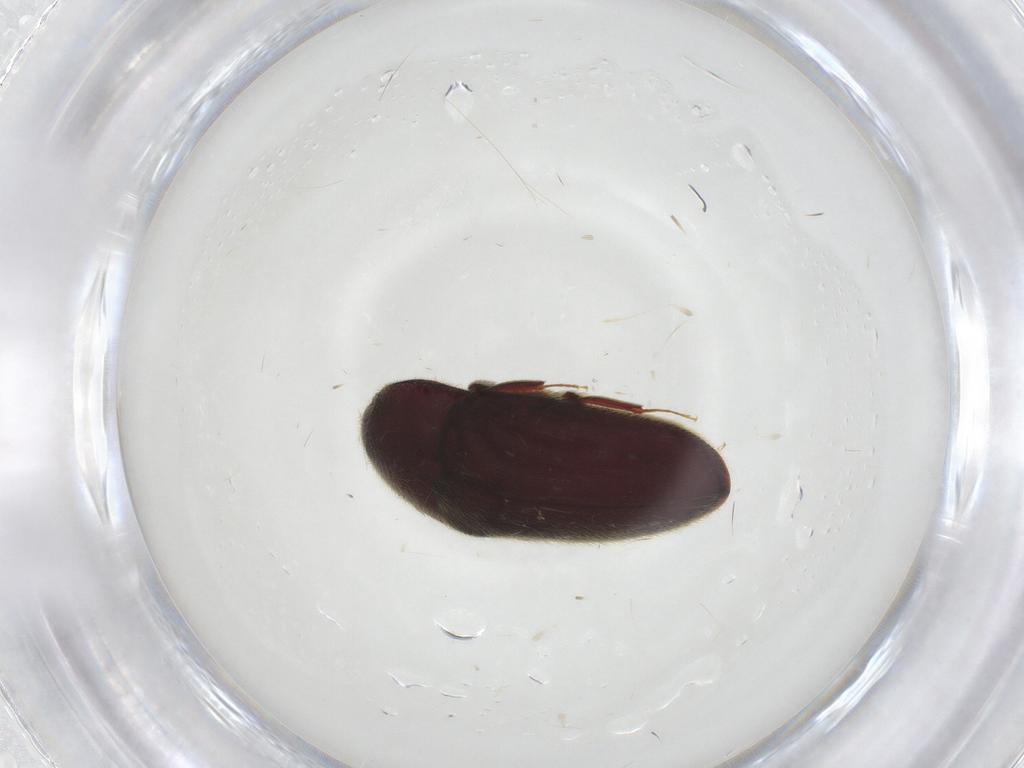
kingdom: Animalia
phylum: Arthropoda
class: Insecta
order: Coleoptera
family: Throscidae
